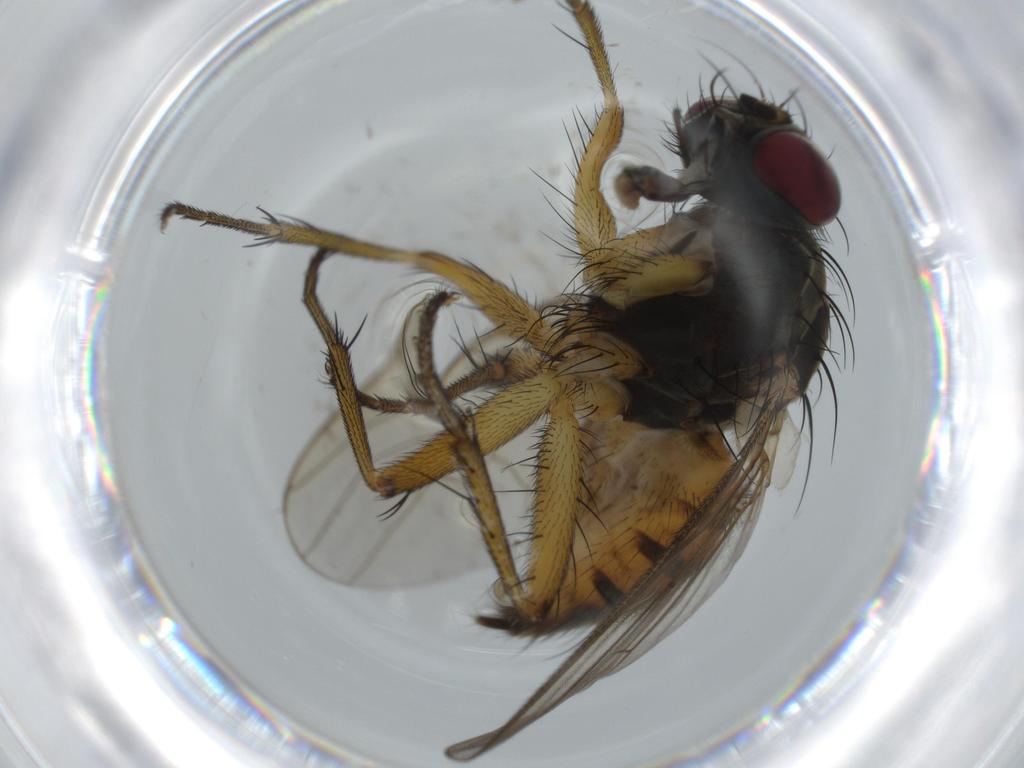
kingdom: Animalia
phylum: Arthropoda
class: Insecta
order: Diptera
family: Muscidae
